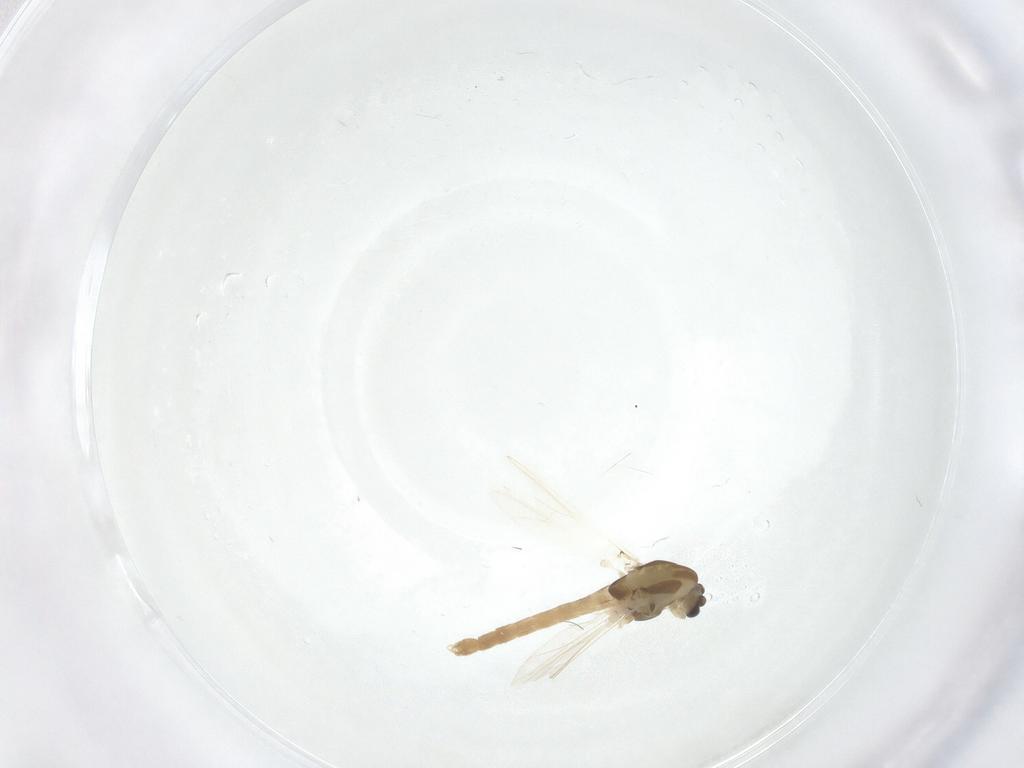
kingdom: Animalia
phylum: Arthropoda
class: Insecta
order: Diptera
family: Chironomidae
